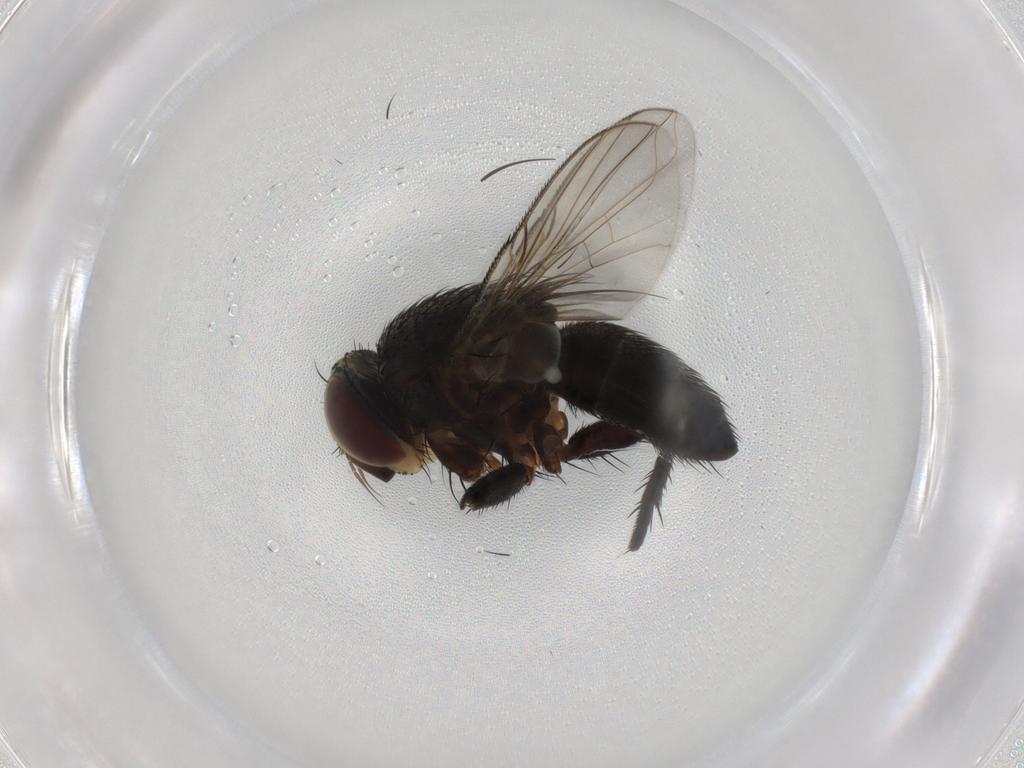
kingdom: Animalia
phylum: Arthropoda
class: Insecta
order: Diptera
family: Tachinidae
